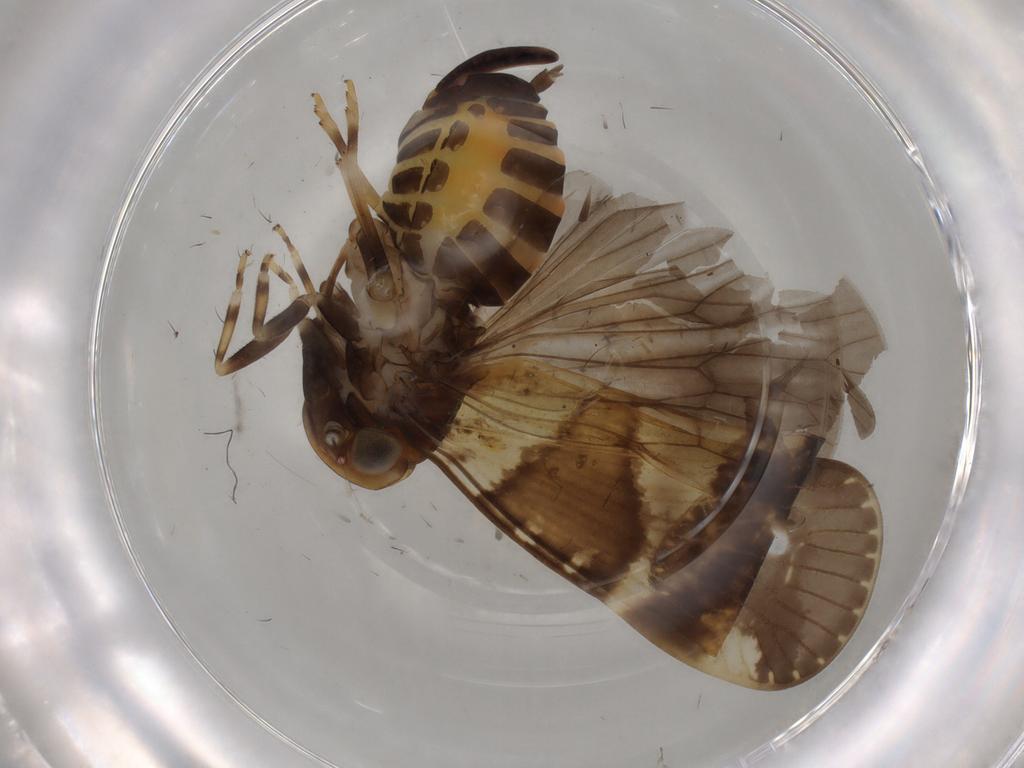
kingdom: Animalia
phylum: Arthropoda
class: Insecta
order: Hemiptera
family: Cixiidae
